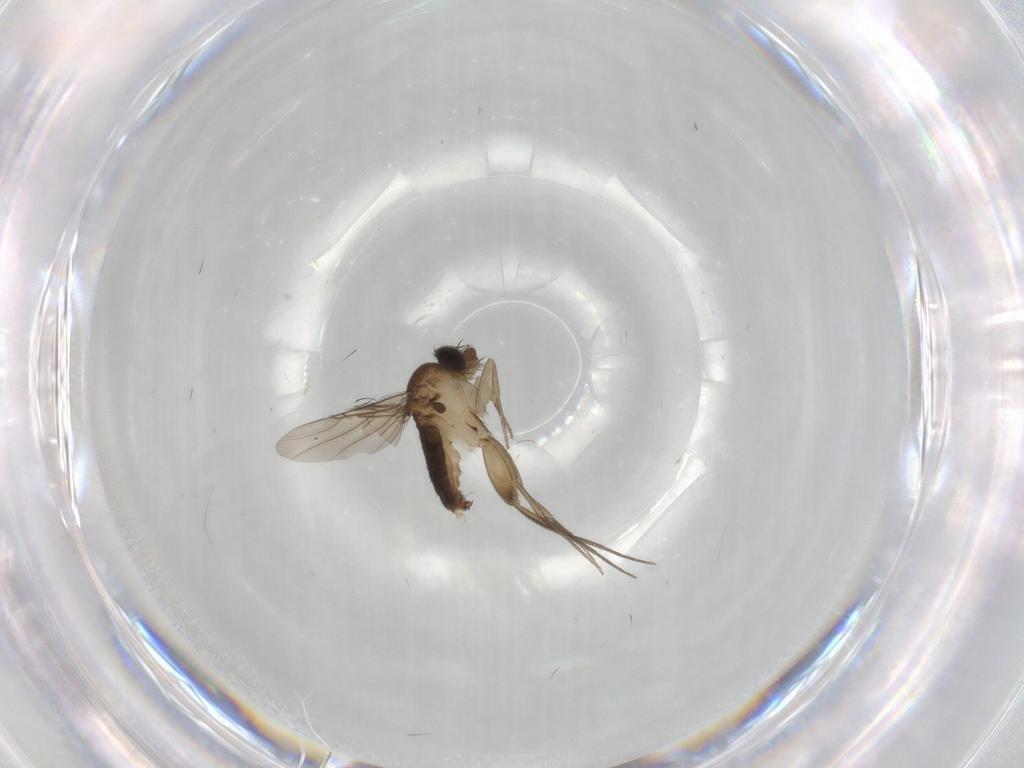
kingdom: Animalia
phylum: Arthropoda
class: Insecta
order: Diptera
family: Phoridae
